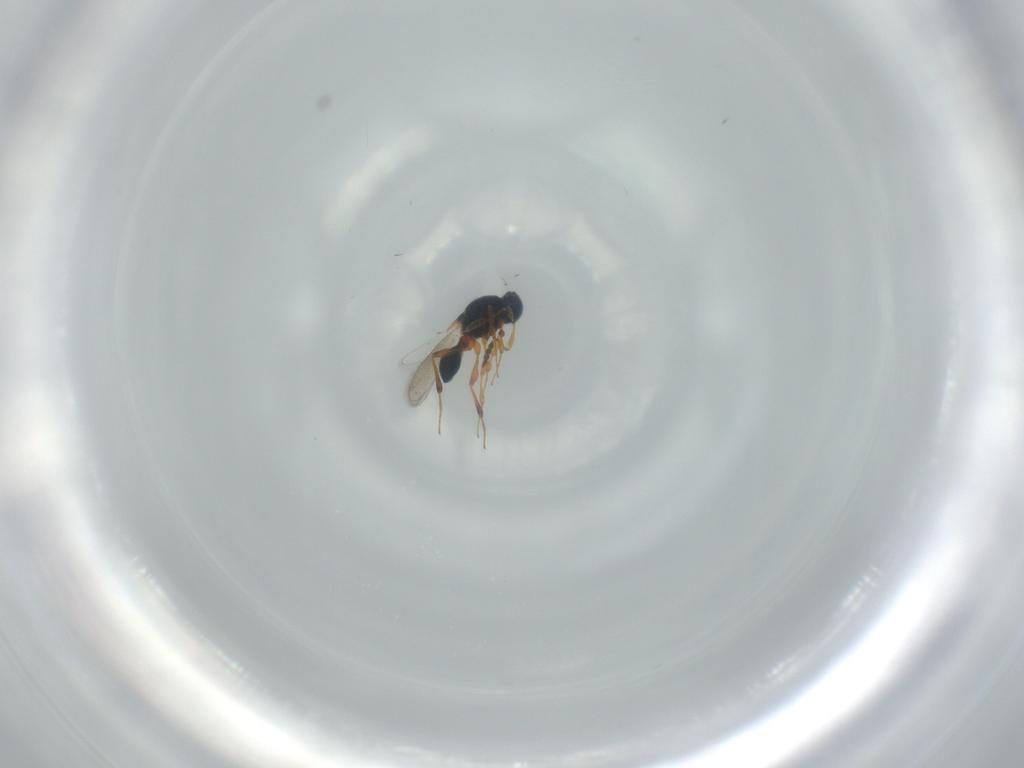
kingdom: Animalia
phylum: Arthropoda
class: Insecta
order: Hymenoptera
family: Platygastridae
